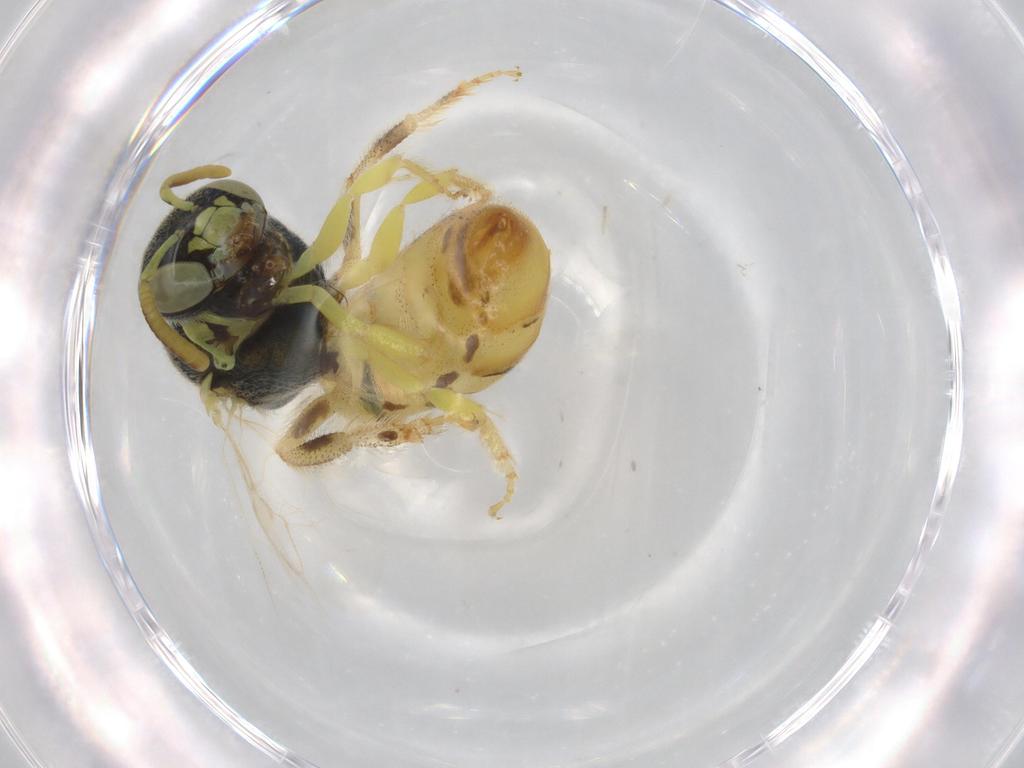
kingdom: Animalia
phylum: Arthropoda
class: Insecta
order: Hymenoptera
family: Halictidae
